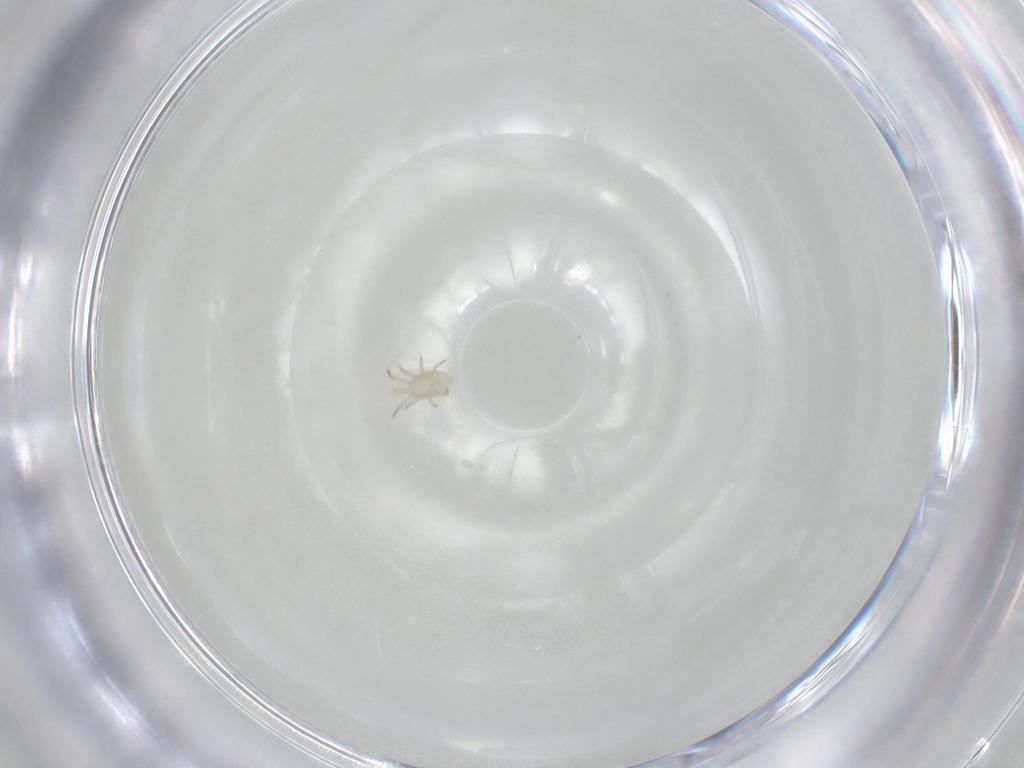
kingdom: Animalia
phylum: Arthropoda
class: Arachnida
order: Mesostigmata
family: Laelapidae
